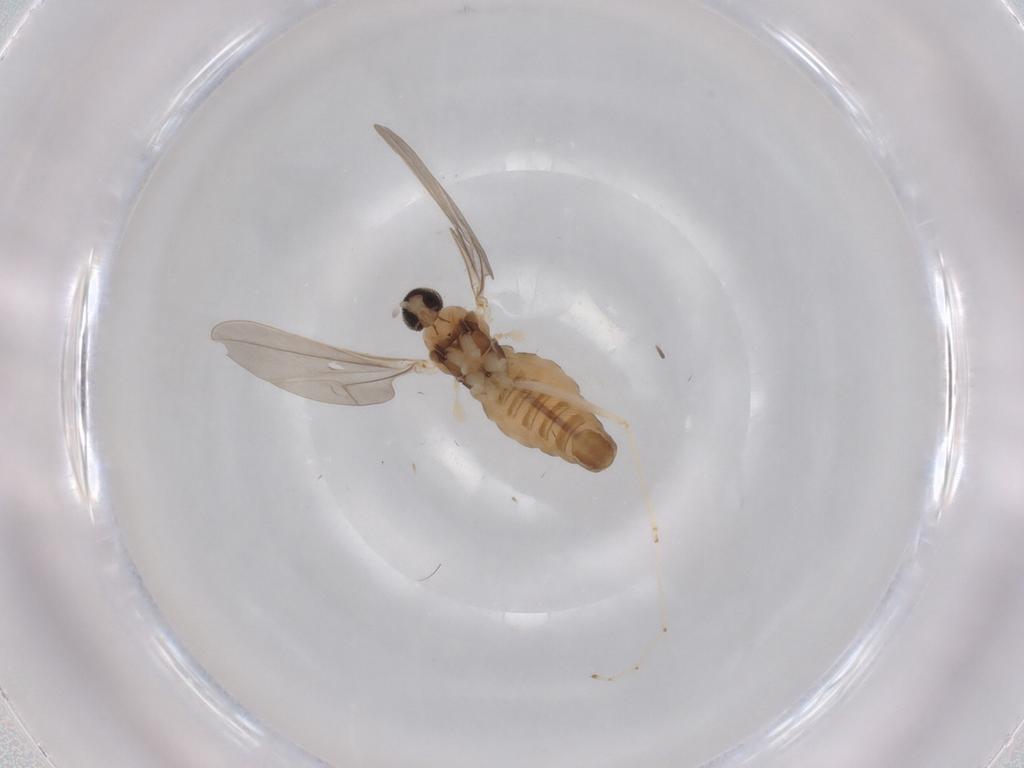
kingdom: Animalia
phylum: Arthropoda
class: Insecta
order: Diptera
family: Cecidomyiidae
